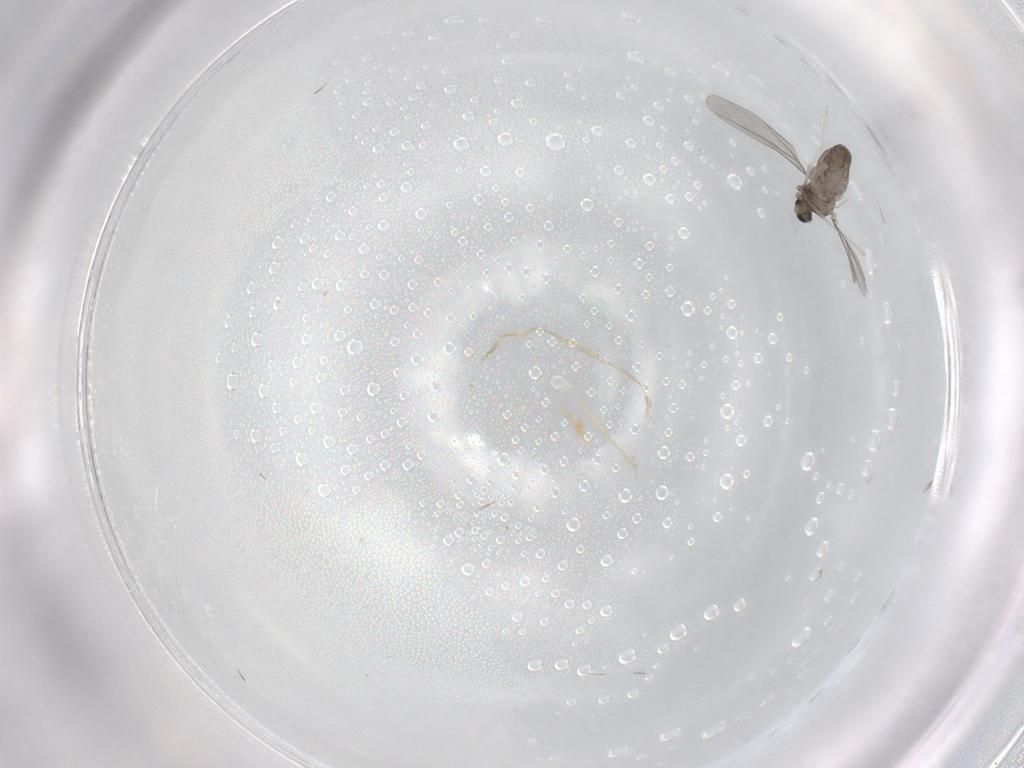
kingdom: Animalia
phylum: Arthropoda
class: Insecta
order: Diptera
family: Cecidomyiidae
